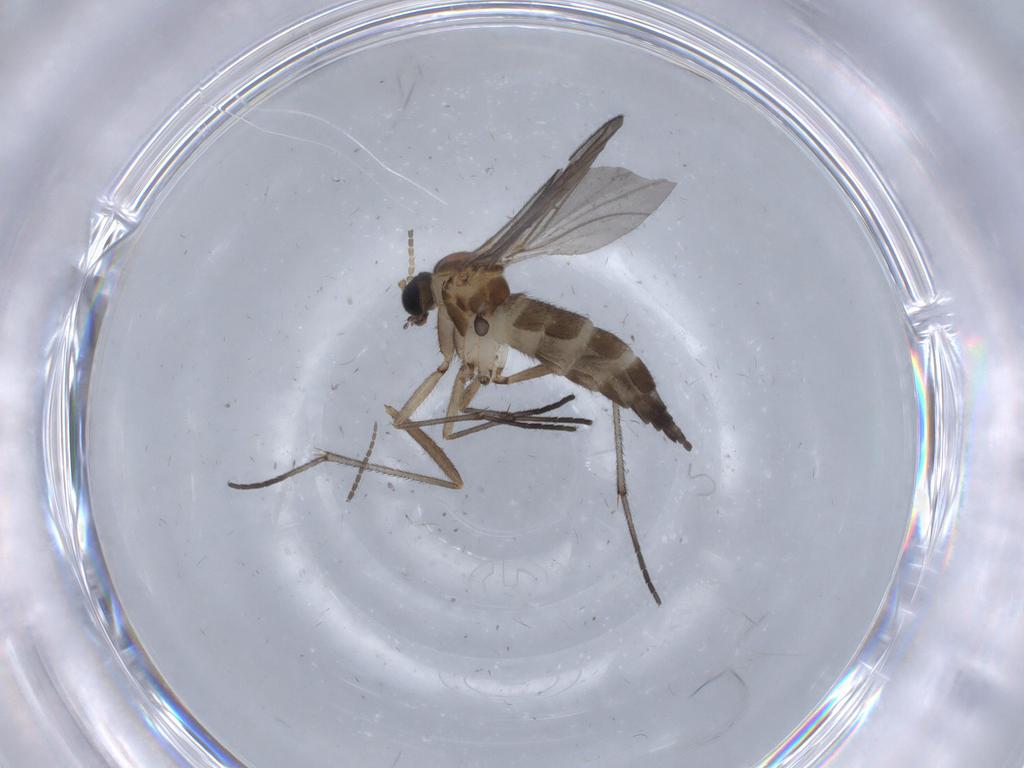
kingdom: Animalia
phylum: Arthropoda
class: Insecta
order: Diptera
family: Sciaridae
